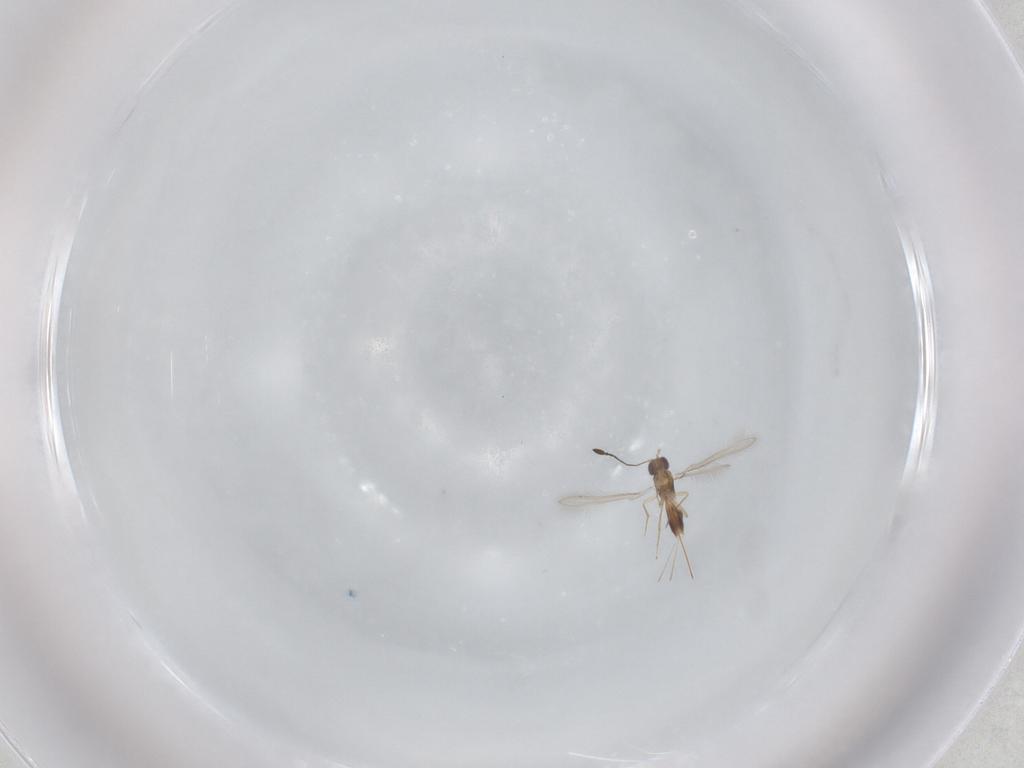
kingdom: Animalia
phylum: Arthropoda
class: Insecta
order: Hymenoptera
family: Mymaridae
